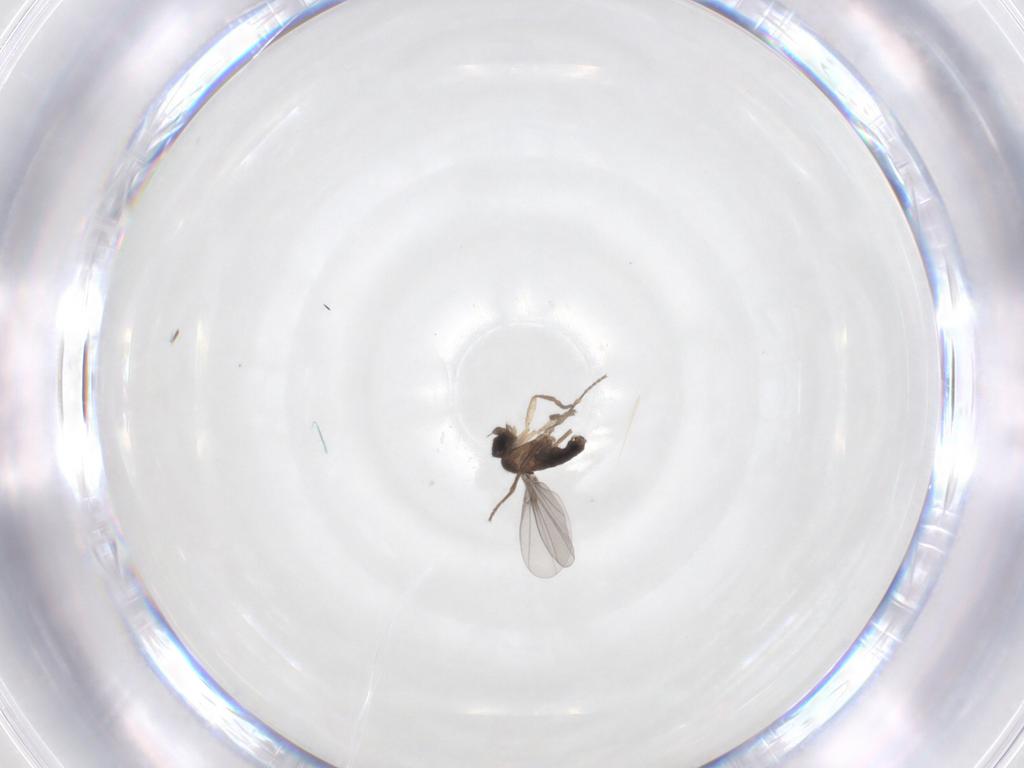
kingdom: Animalia
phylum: Arthropoda
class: Insecta
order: Diptera
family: Phoridae
